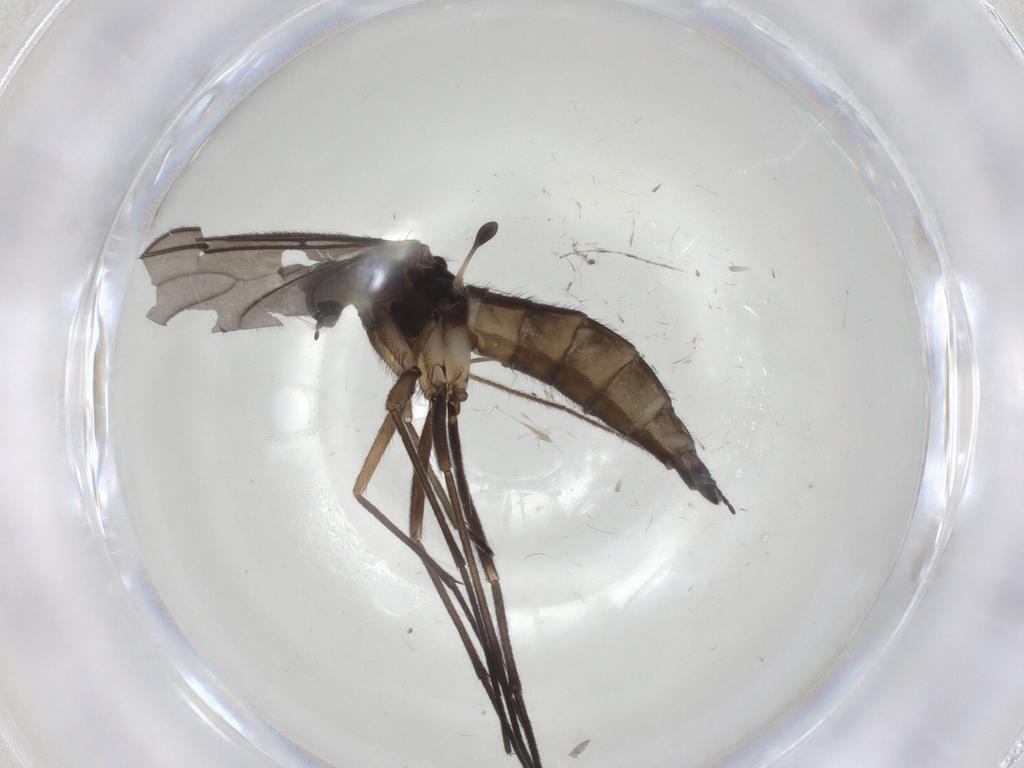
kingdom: Animalia
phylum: Arthropoda
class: Insecta
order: Diptera
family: Sciaridae
